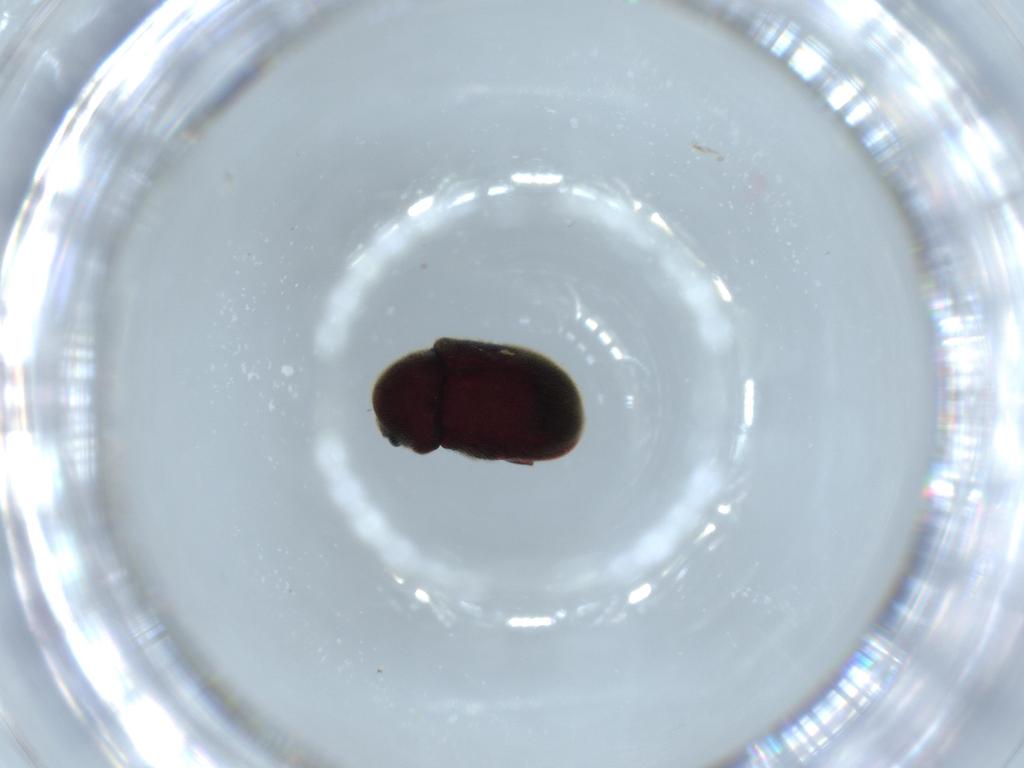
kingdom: Animalia
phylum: Arthropoda
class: Insecta
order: Coleoptera
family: Ptinidae
